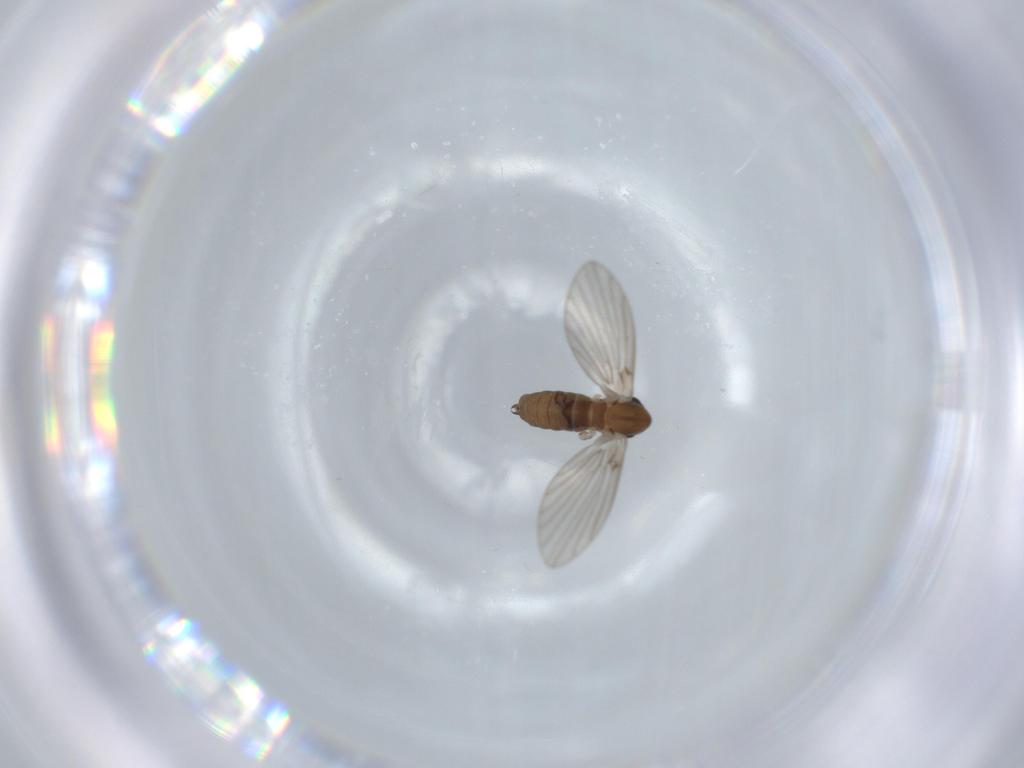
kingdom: Animalia
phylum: Arthropoda
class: Insecta
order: Diptera
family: Psychodidae
